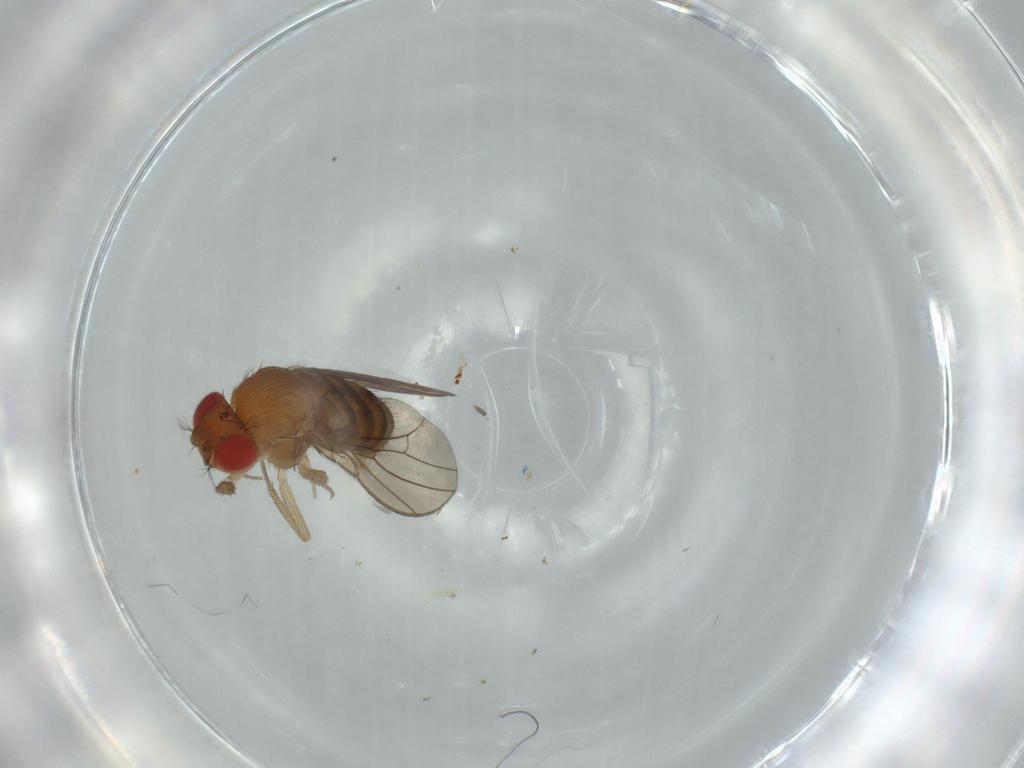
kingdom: Animalia
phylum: Arthropoda
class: Insecta
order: Diptera
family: Drosophilidae
